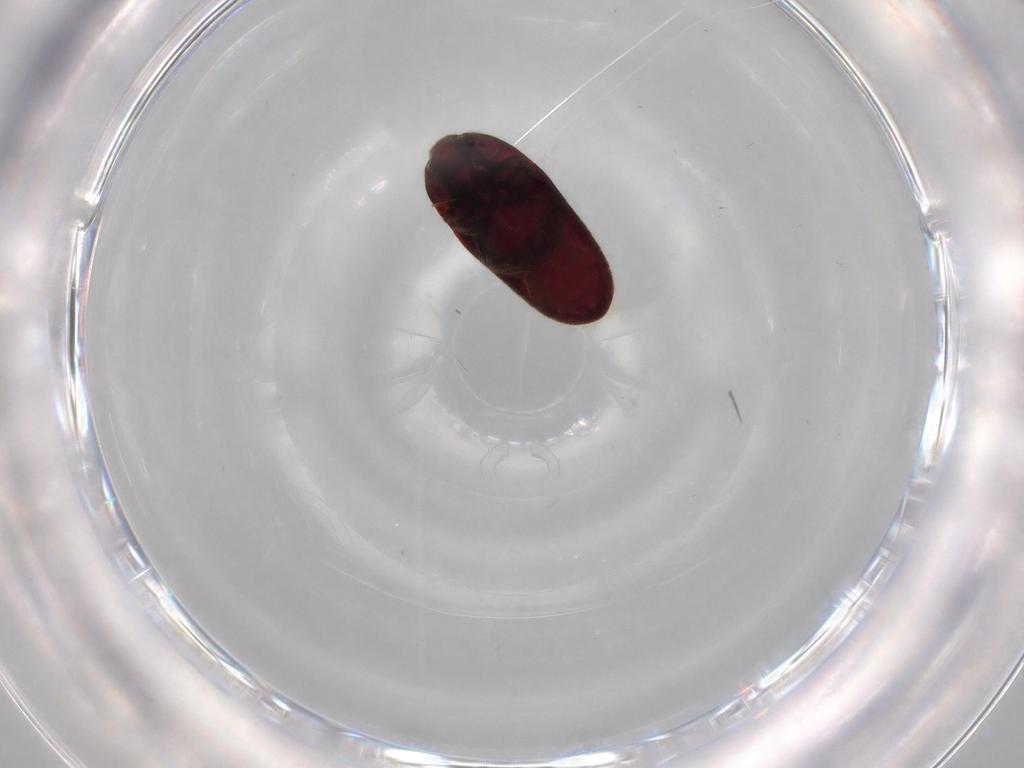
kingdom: Animalia
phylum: Arthropoda
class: Insecta
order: Coleoptera
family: Throscidae
